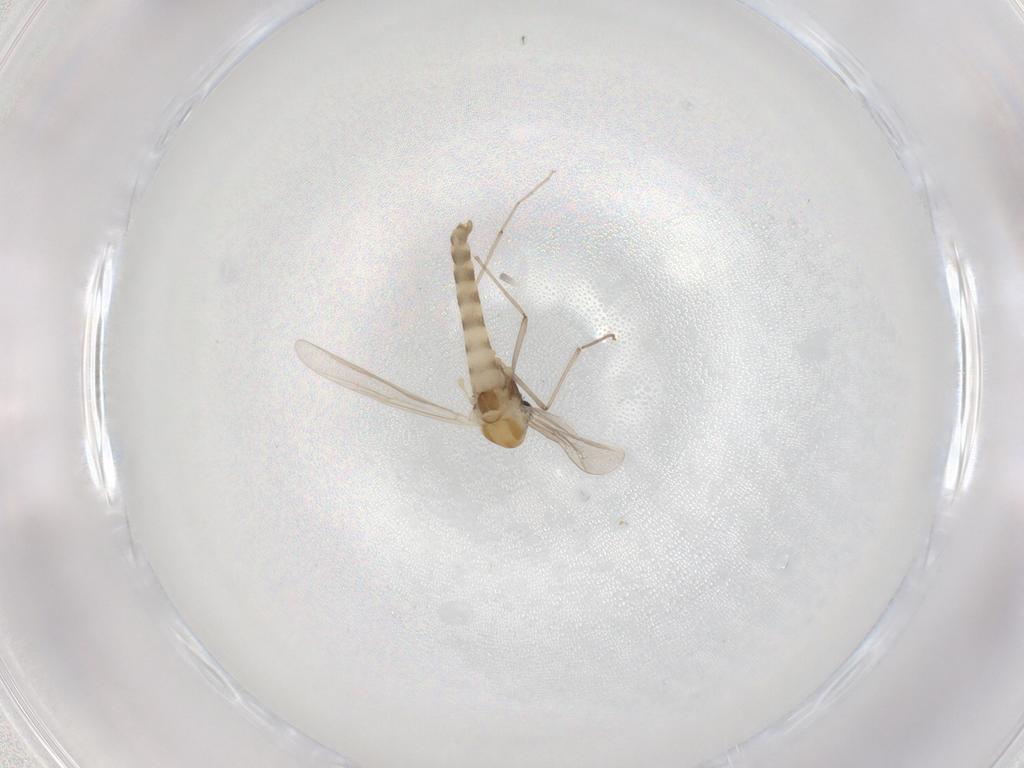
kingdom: Animalia
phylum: Arthropoda
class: Insecta
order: Diptera
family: Chironomidae
